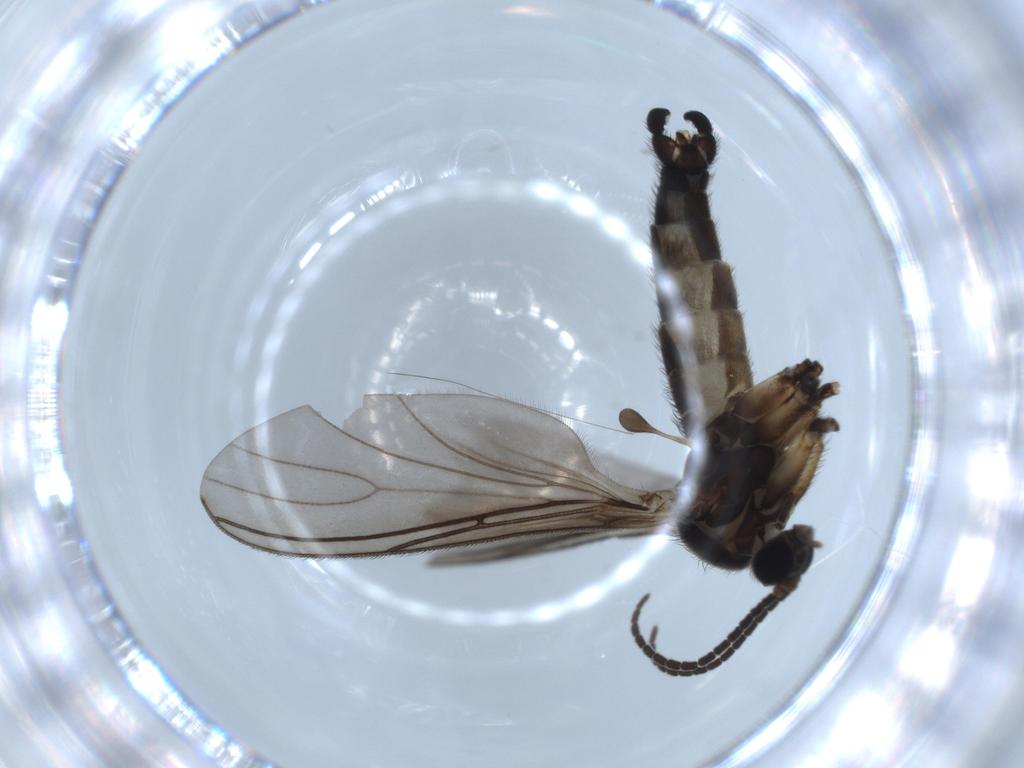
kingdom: Animalia
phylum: Arthropoda
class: Insecta
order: Diptera
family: Sciaridae
